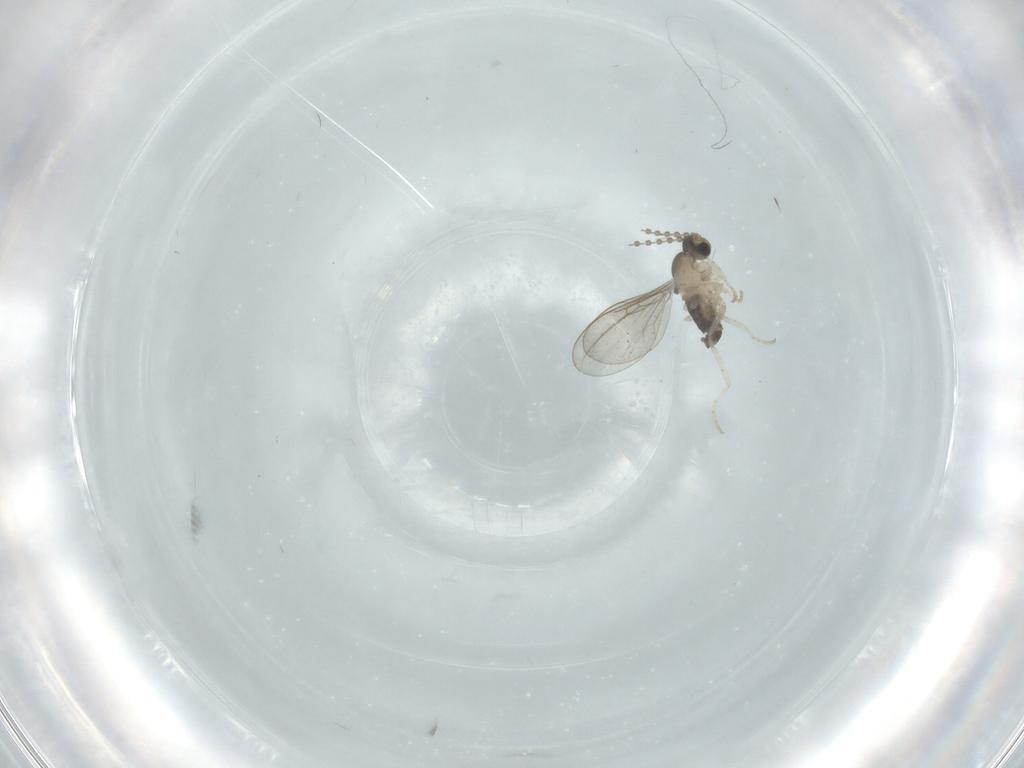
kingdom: Animalia
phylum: Arthropoda
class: Insecta
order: Diptera
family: Cecidomyiidae
